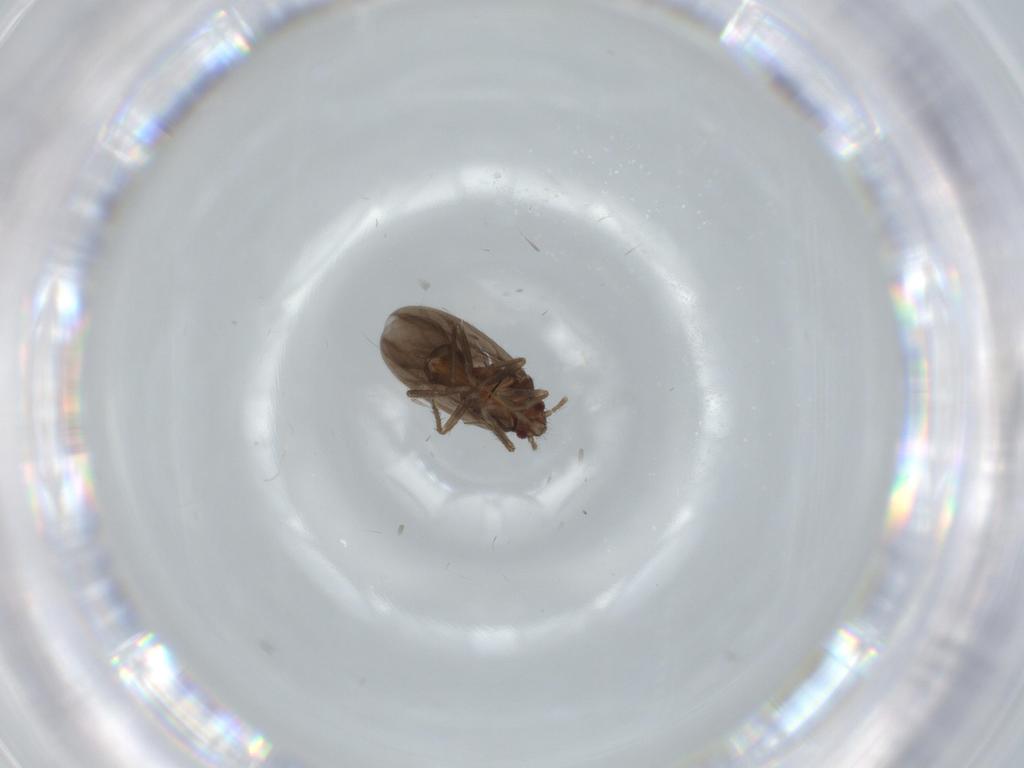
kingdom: Animalia
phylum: Arthropoda
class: Insecta
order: Hemiptera
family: Ceratocombidae
